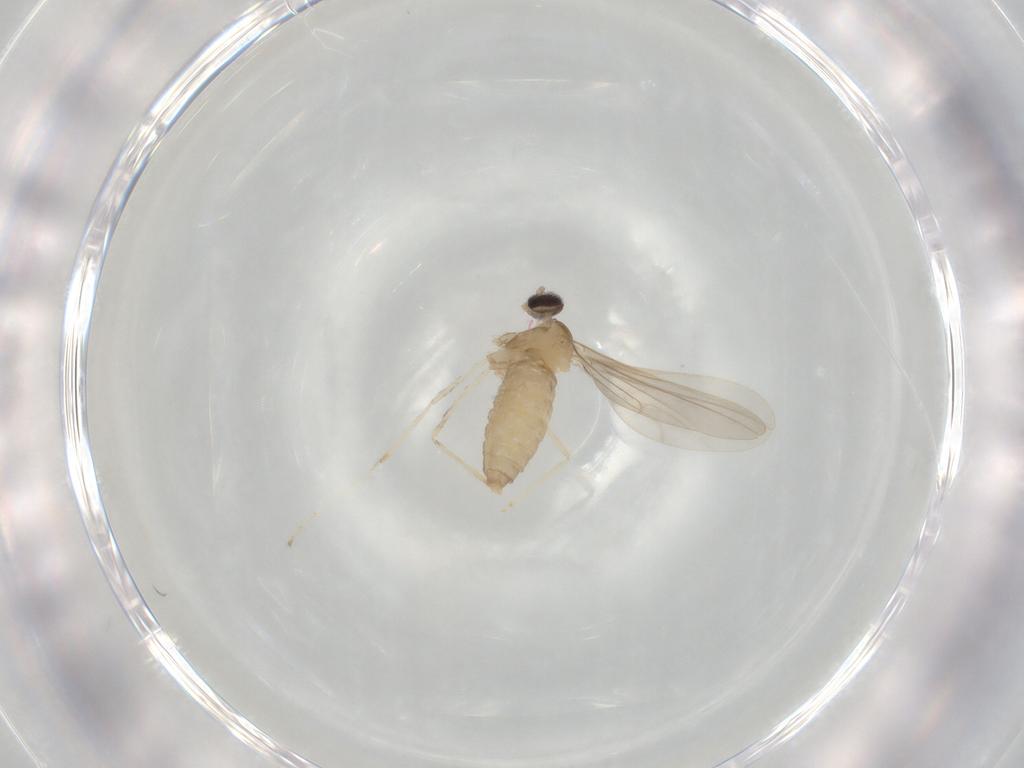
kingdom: Animalia
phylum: Arthropoda
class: Insecta
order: Diptera
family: Cecidomyiidae
